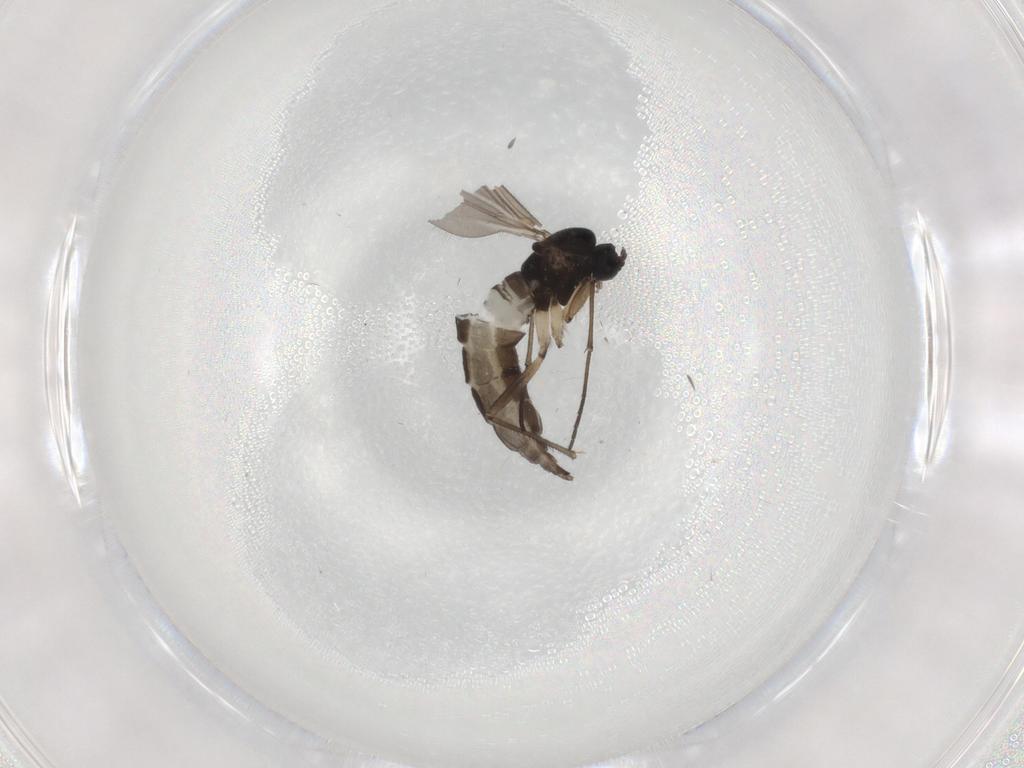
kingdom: Animalia
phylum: Arthropoda
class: Insecta
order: Diptera
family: Sciaridae
